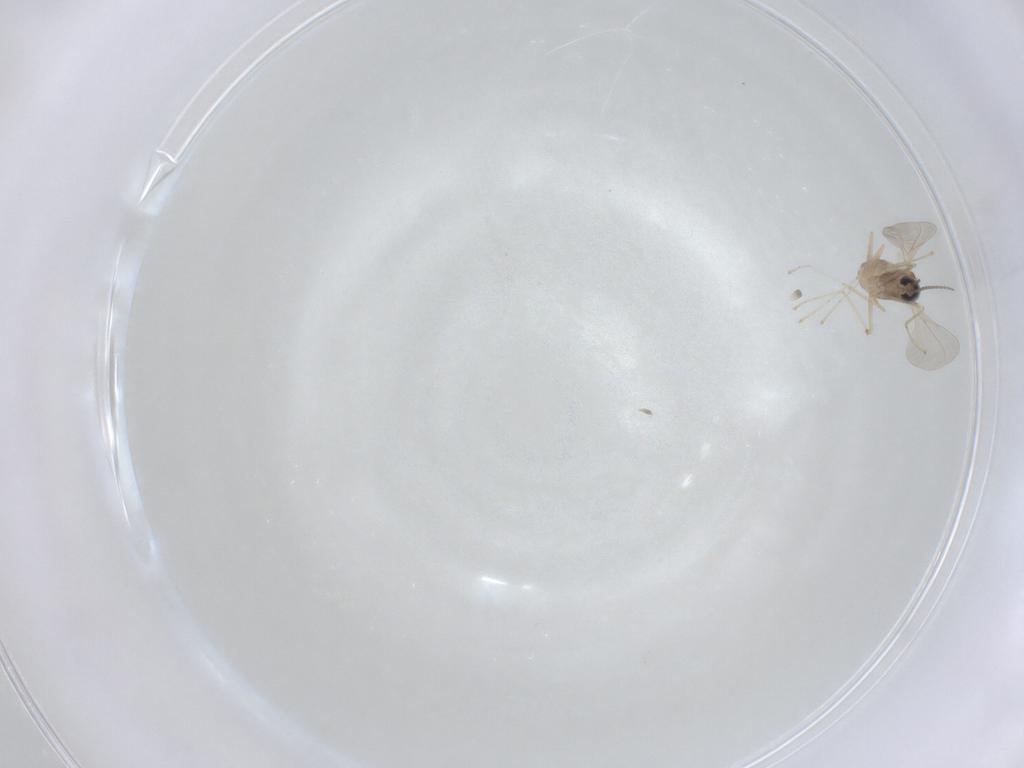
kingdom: Animalia
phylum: Arthropoda
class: Insecta
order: Diptera
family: Cecidomyiidae
